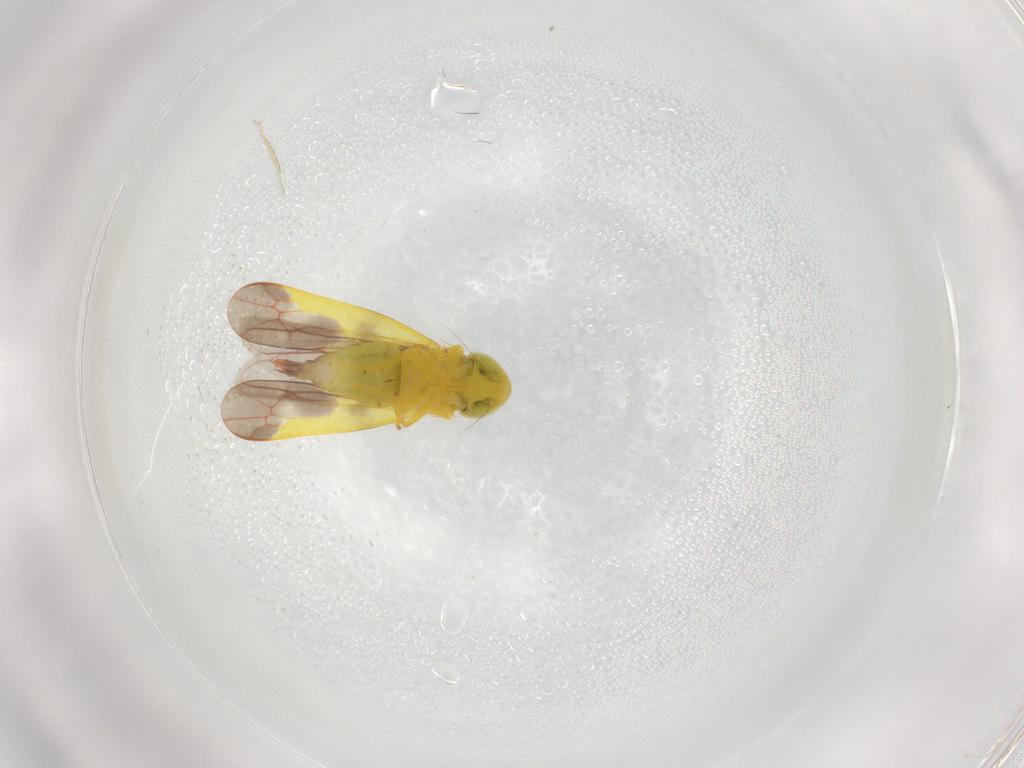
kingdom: Animalia
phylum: Arthropoda
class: Insecta
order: Hemiptera
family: Cicadellidae
